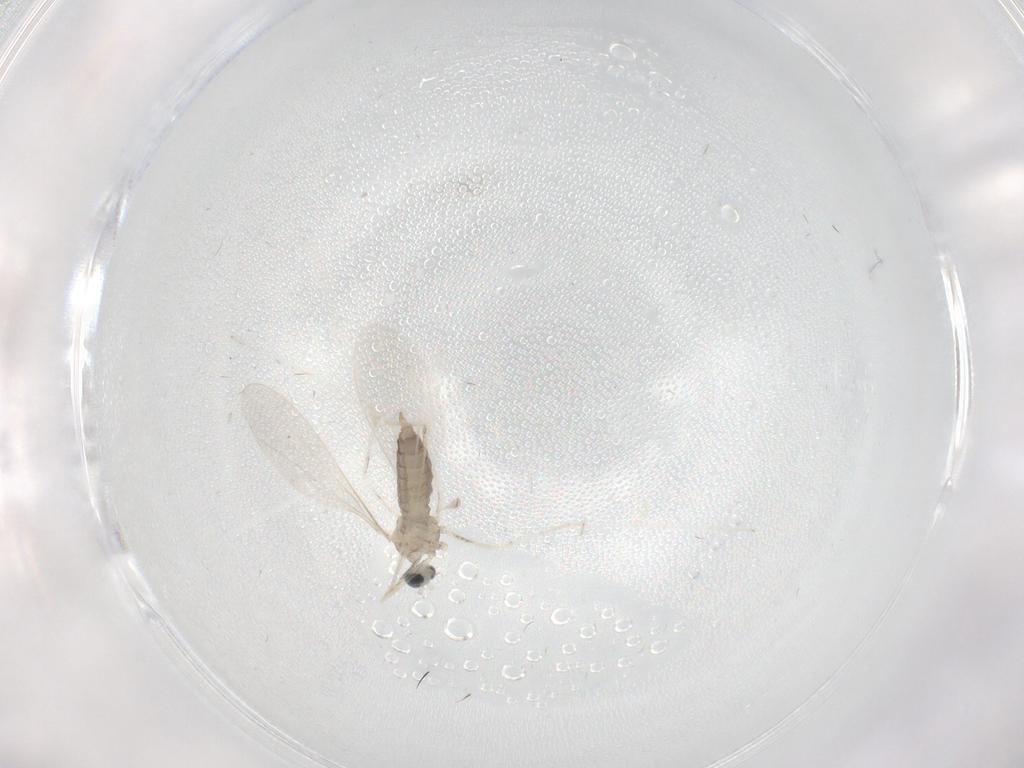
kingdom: Animalia
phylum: Arthropoda
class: Insecta
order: Diptera
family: Cecidomyiidae
